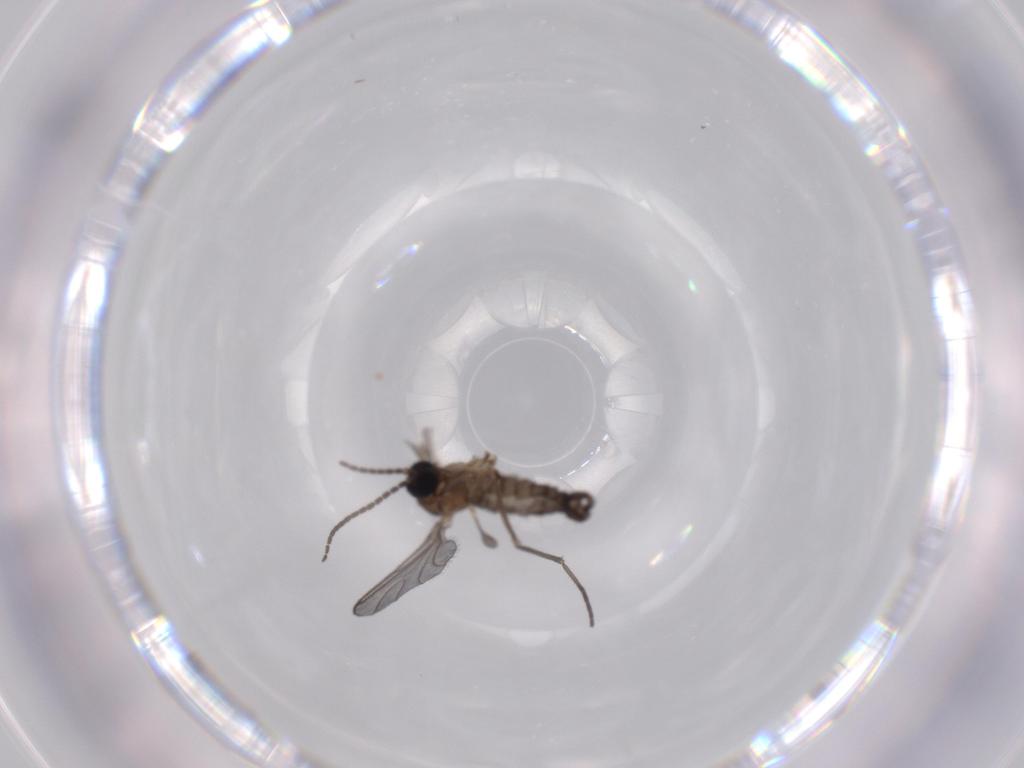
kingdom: Animalia
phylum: Arthropoda
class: Insecta
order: Diptera
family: Sciaridae
